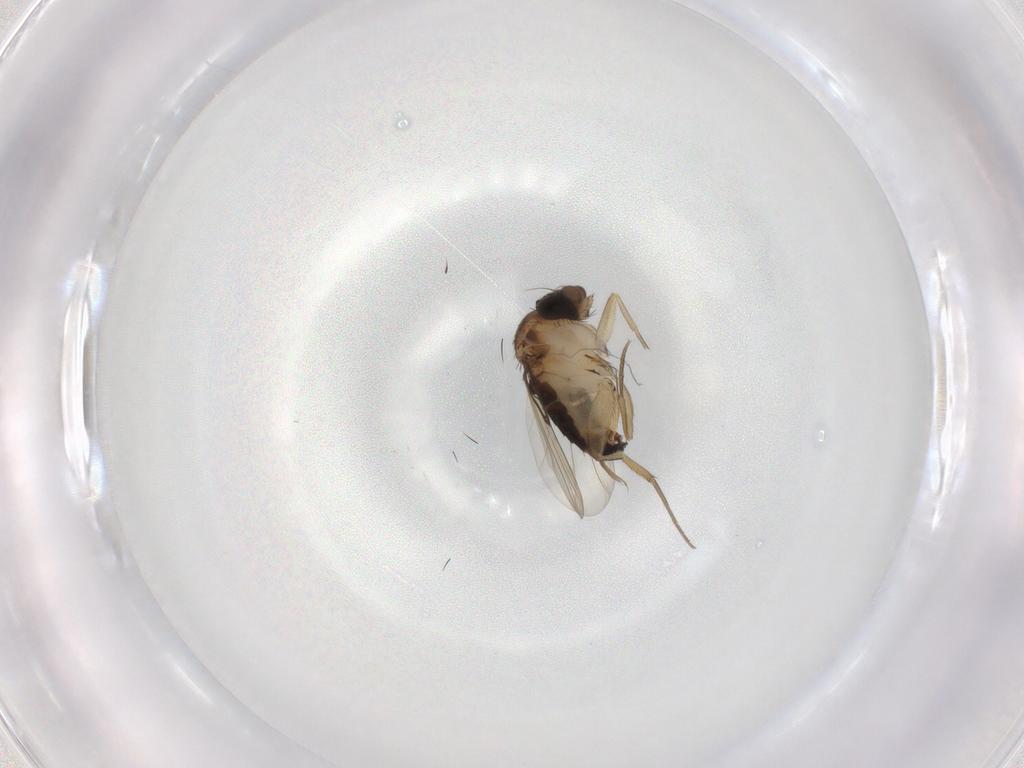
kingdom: Animalia
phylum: Arthropoda
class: Insecta
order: Diptera
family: Phoridae
